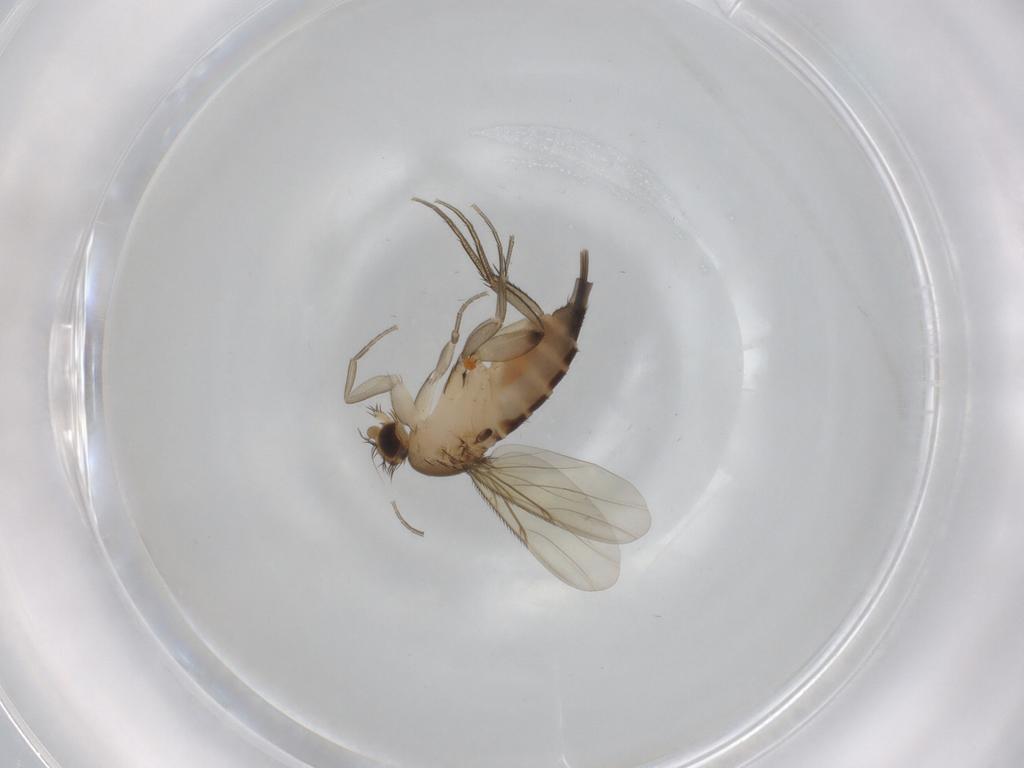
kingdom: Animalia
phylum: Arthropoda
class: Insecta
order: Diptera
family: Phoridae
